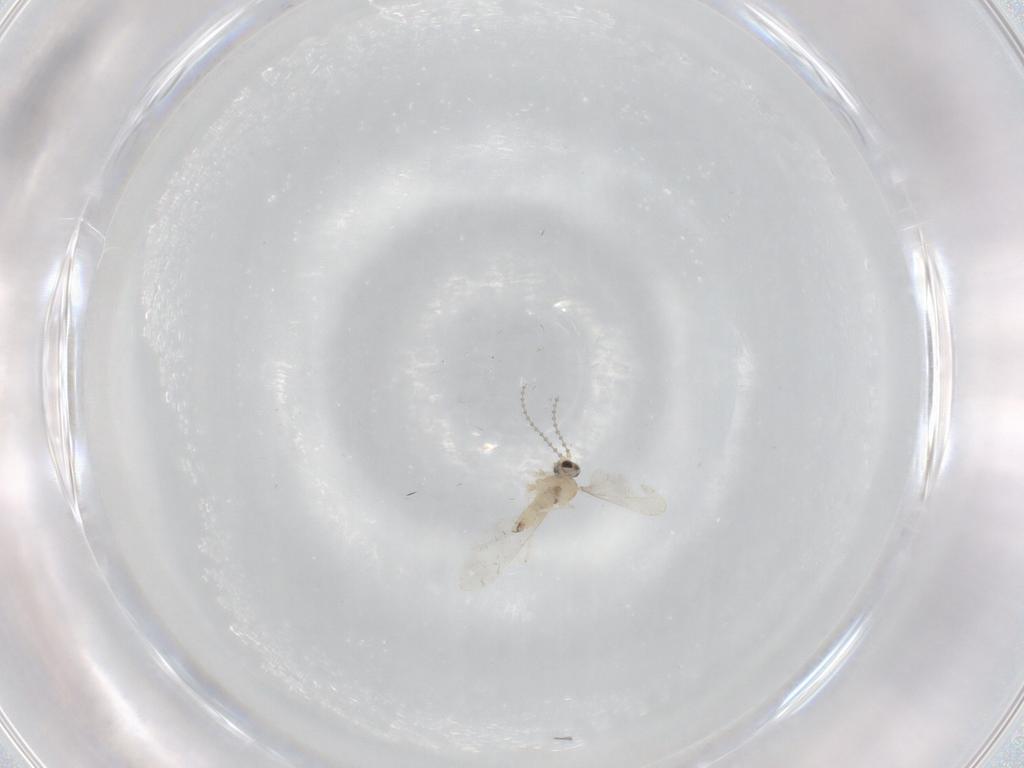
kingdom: Animalia
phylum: Arthropoda
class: Insecta
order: Diptera
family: Cecidomyiidae
